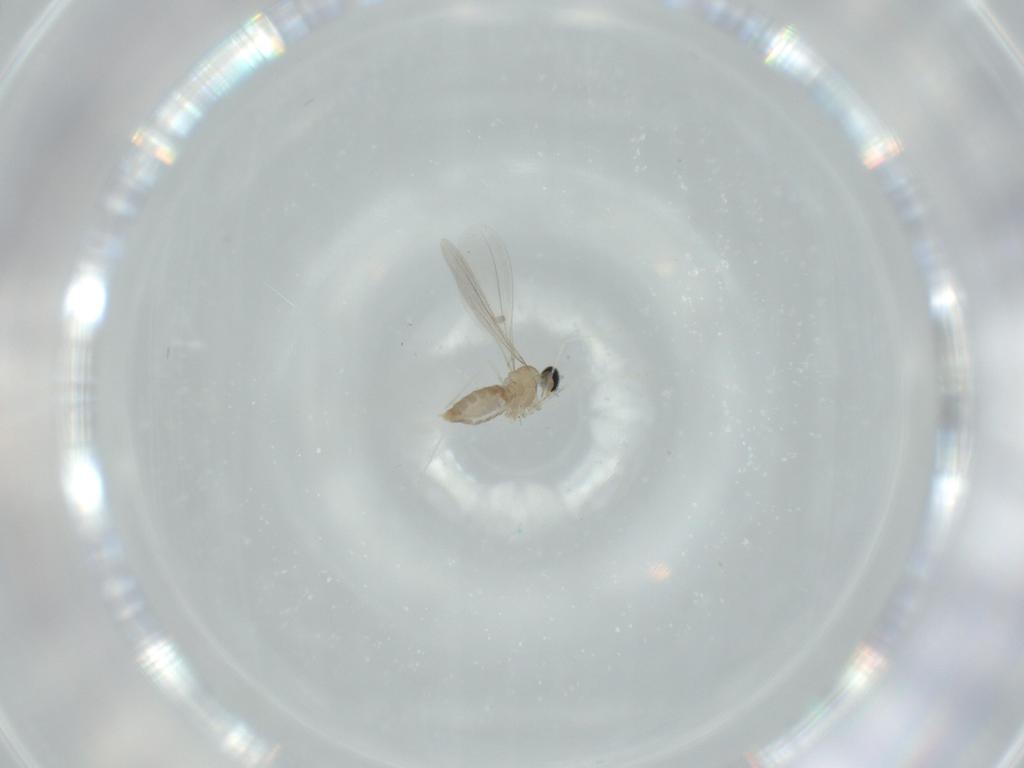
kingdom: Animalia
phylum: Arthropoda
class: Insecta
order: Diptera
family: Cecidomyiidae
